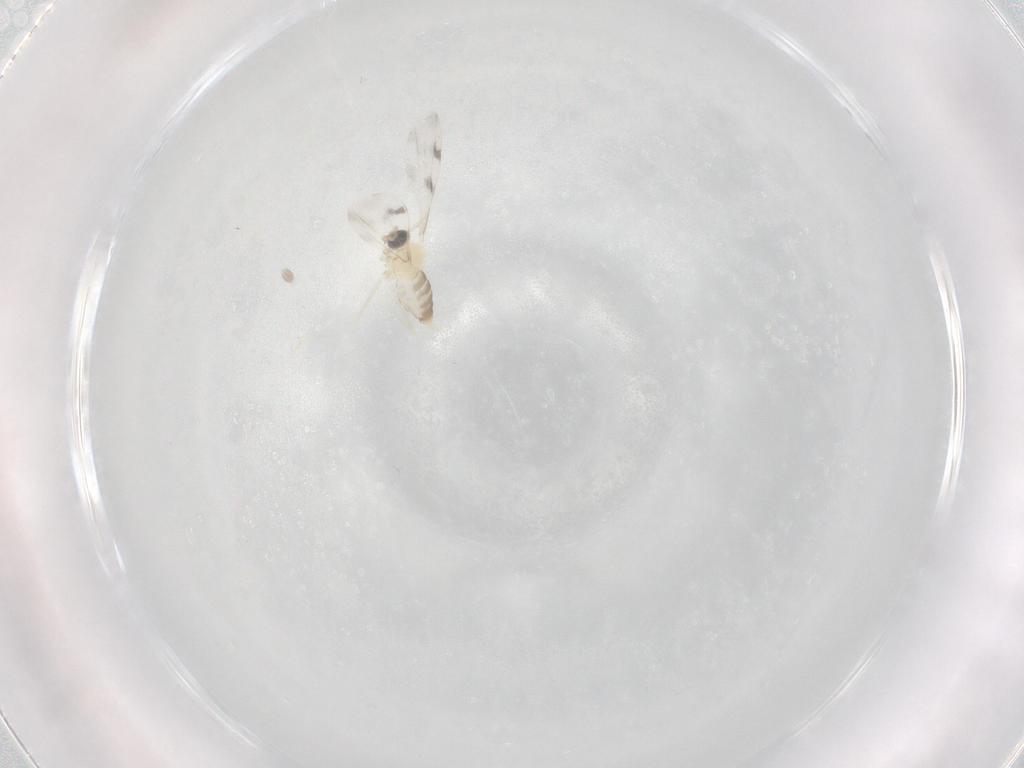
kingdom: Animalia
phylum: Arthropoda
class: Insecta
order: Diptera
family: Cecidomyiidae
